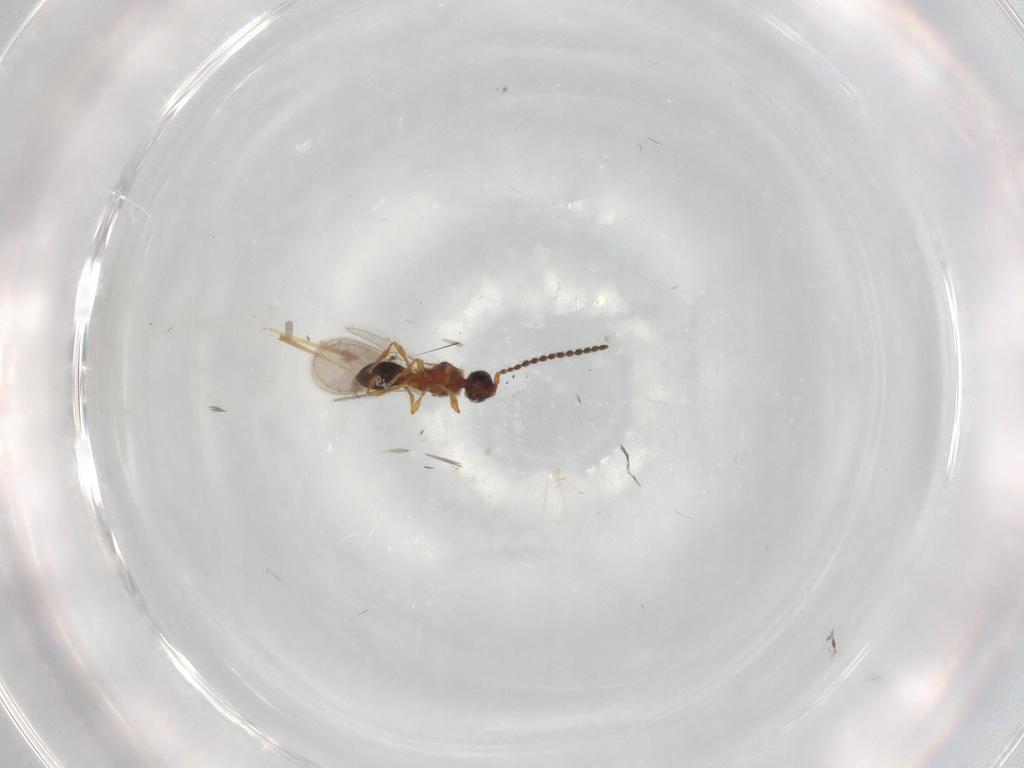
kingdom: Animalia
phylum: Arthropoda
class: Insecta
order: Hymenoptera
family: Diapriidae
